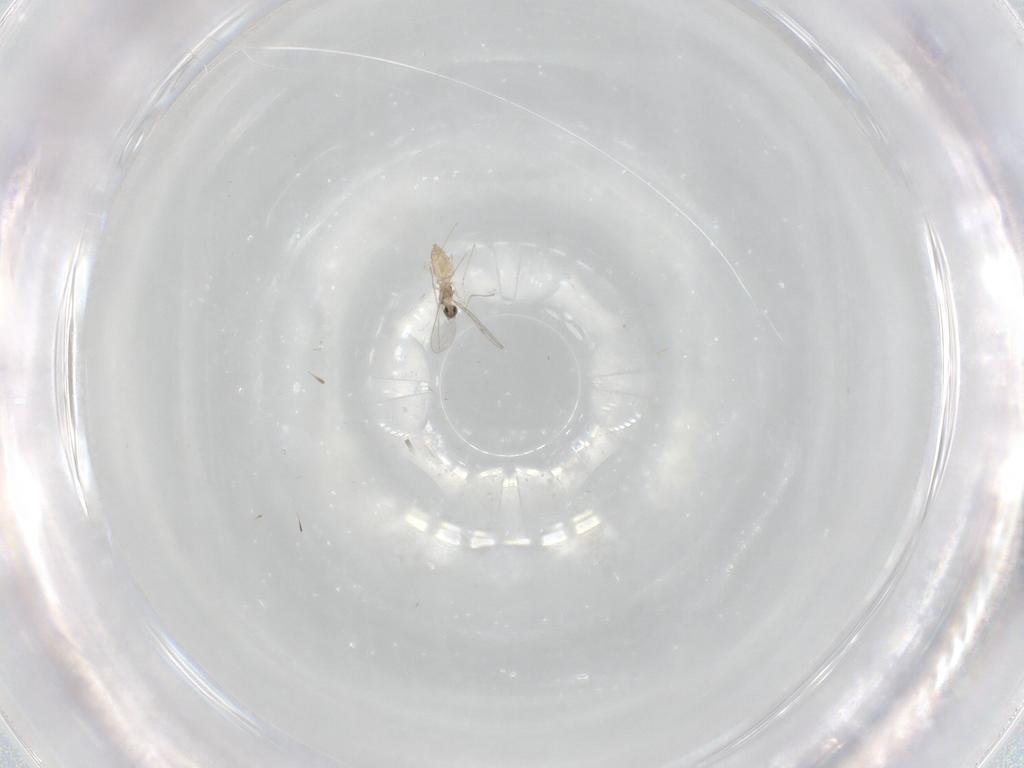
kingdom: Animalia
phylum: Arthropoda
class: Insecta
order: Diptera
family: Cecidomyiidae
